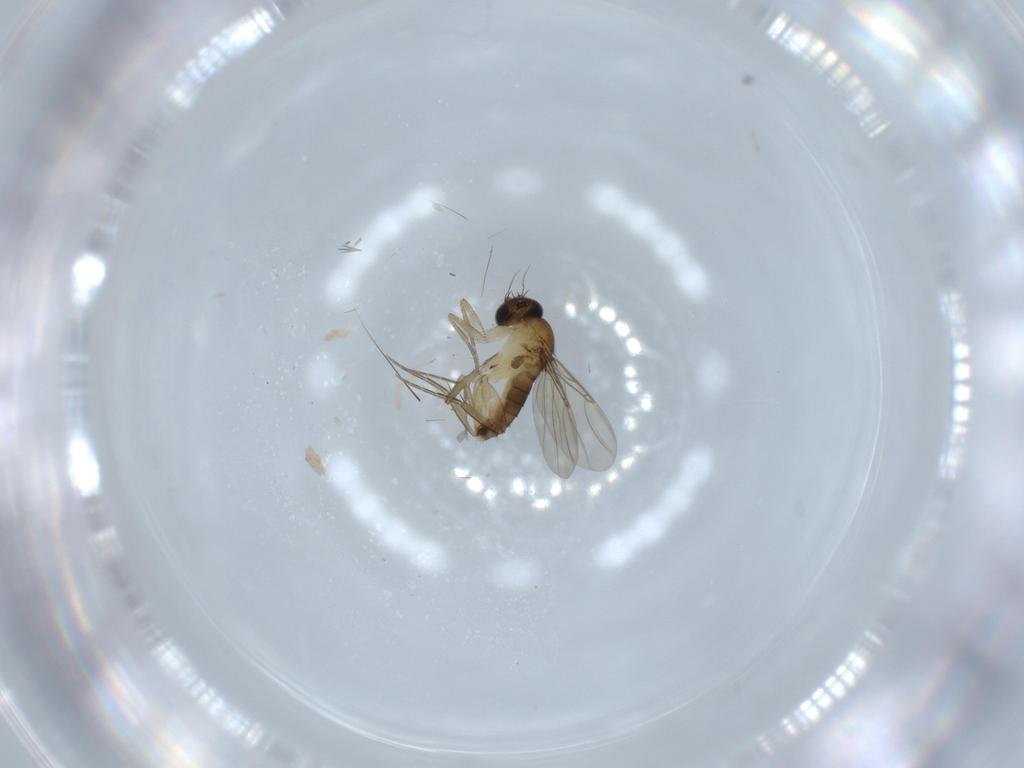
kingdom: Animalia
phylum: Arthropoda
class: Insecta
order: Diptera
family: Phoridae
